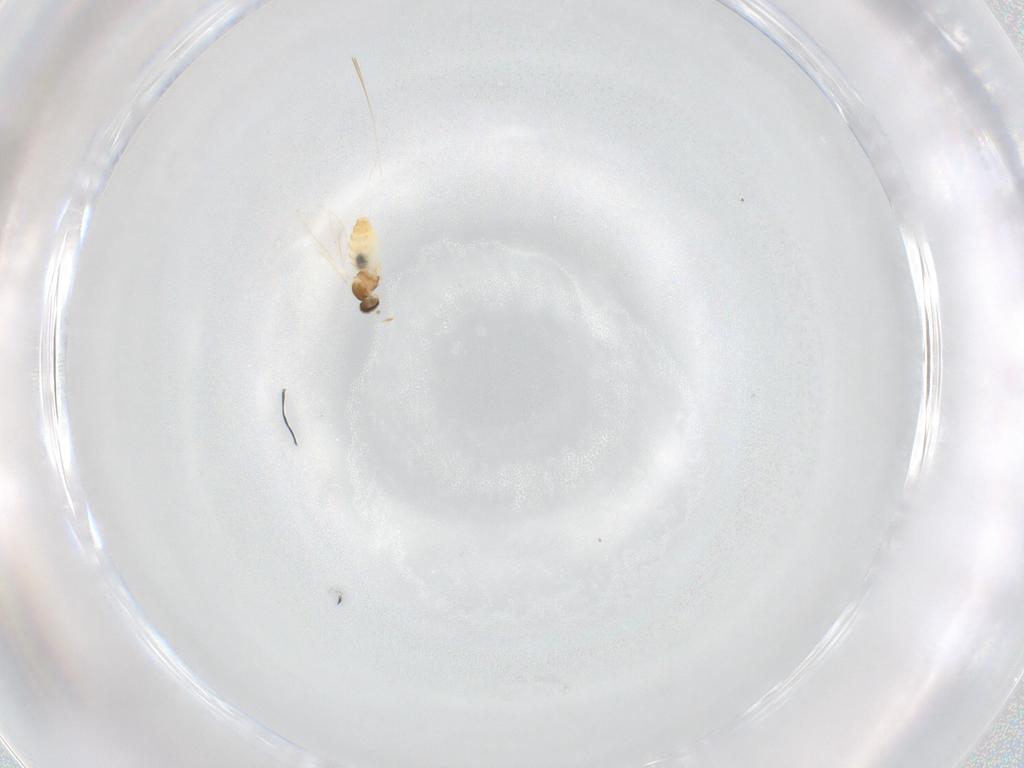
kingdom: Animalia
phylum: Arthropoda
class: Insecta
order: Diptera
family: Cecidomyiidae
